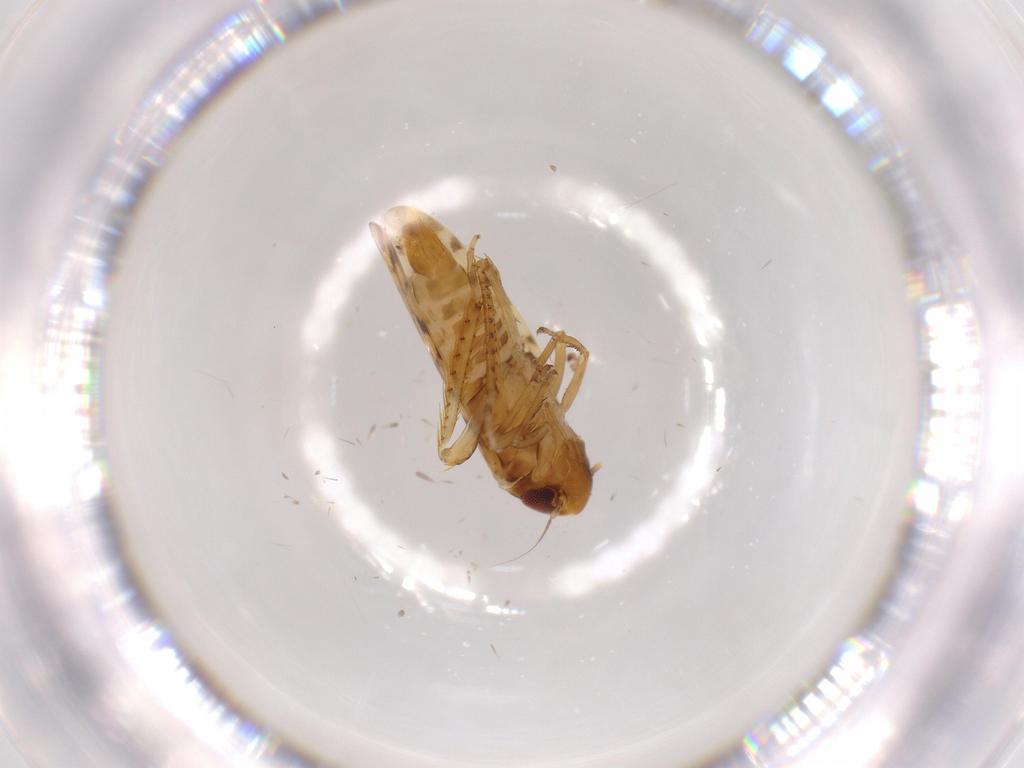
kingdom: Animalia
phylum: Arthropoda
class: Insecta
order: Hemiptera
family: Cicadellidae
